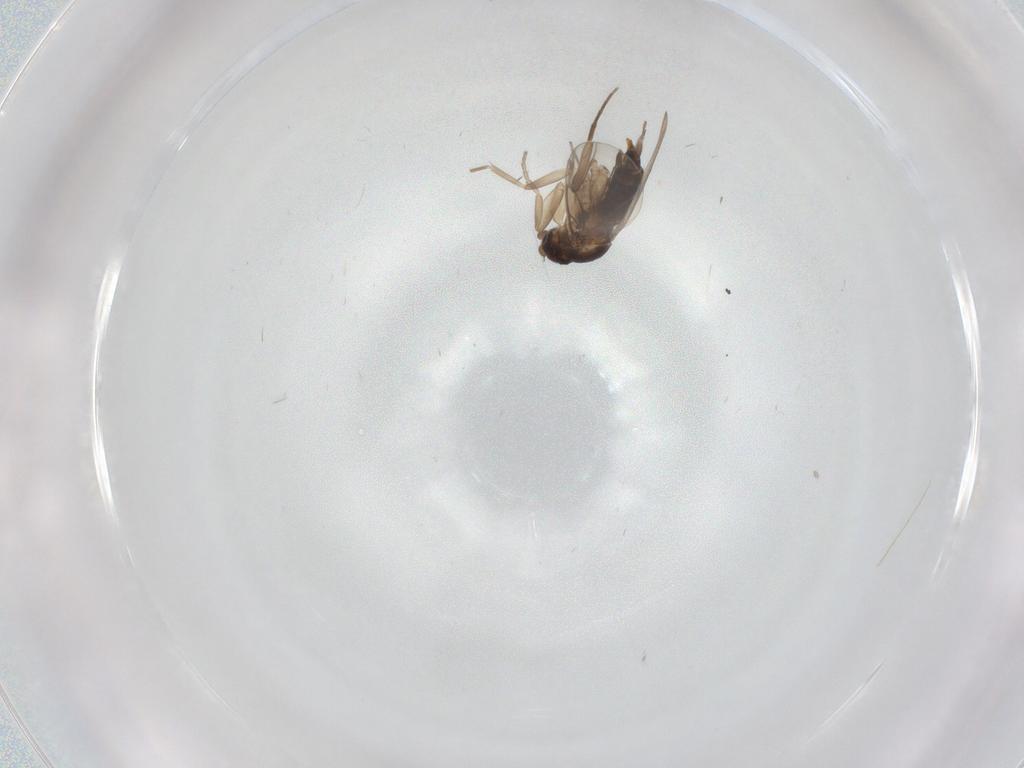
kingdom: Animalia
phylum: Arthropoda
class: Insecta
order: Diptera
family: Phoridae
